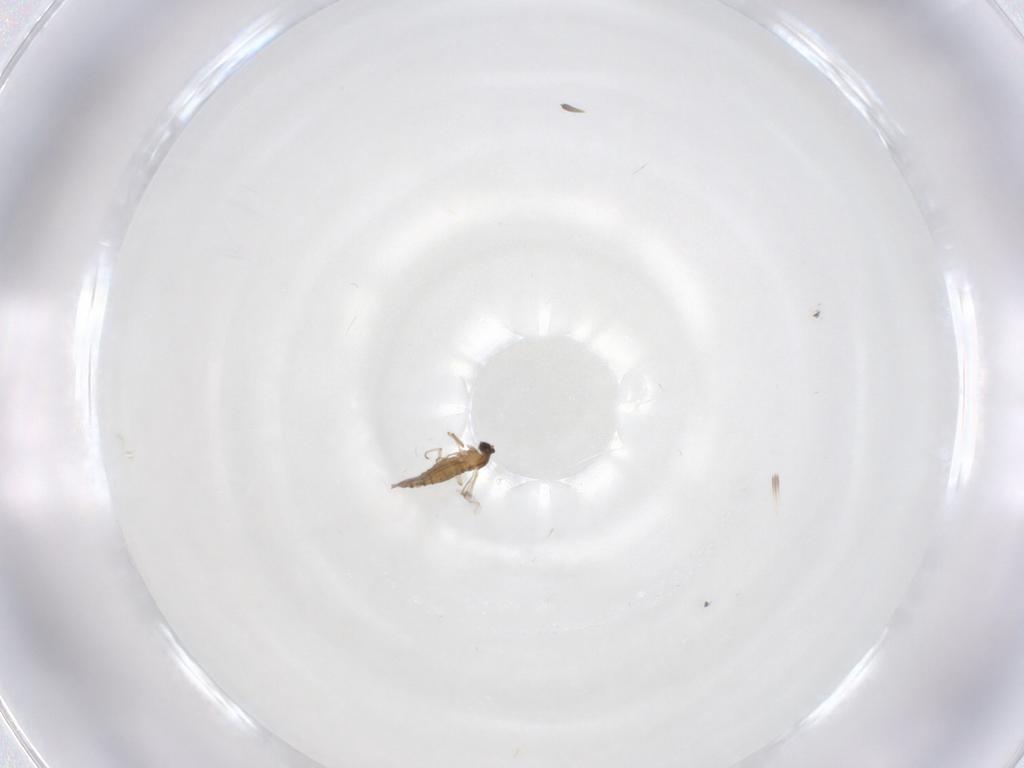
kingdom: Animalia
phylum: Arthropoda
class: Insecta
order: Diptera
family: Cecidomyiidae
